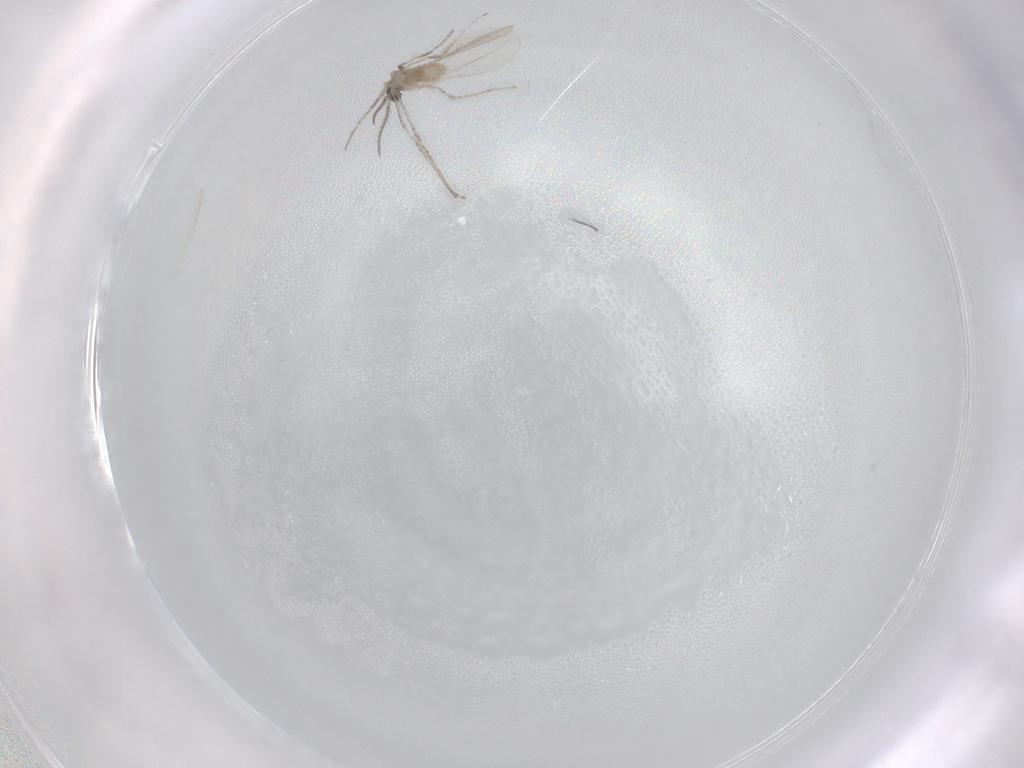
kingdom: Animalia
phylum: Arthropoda
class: Insecta
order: Diptera
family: Cecidomyiidae
